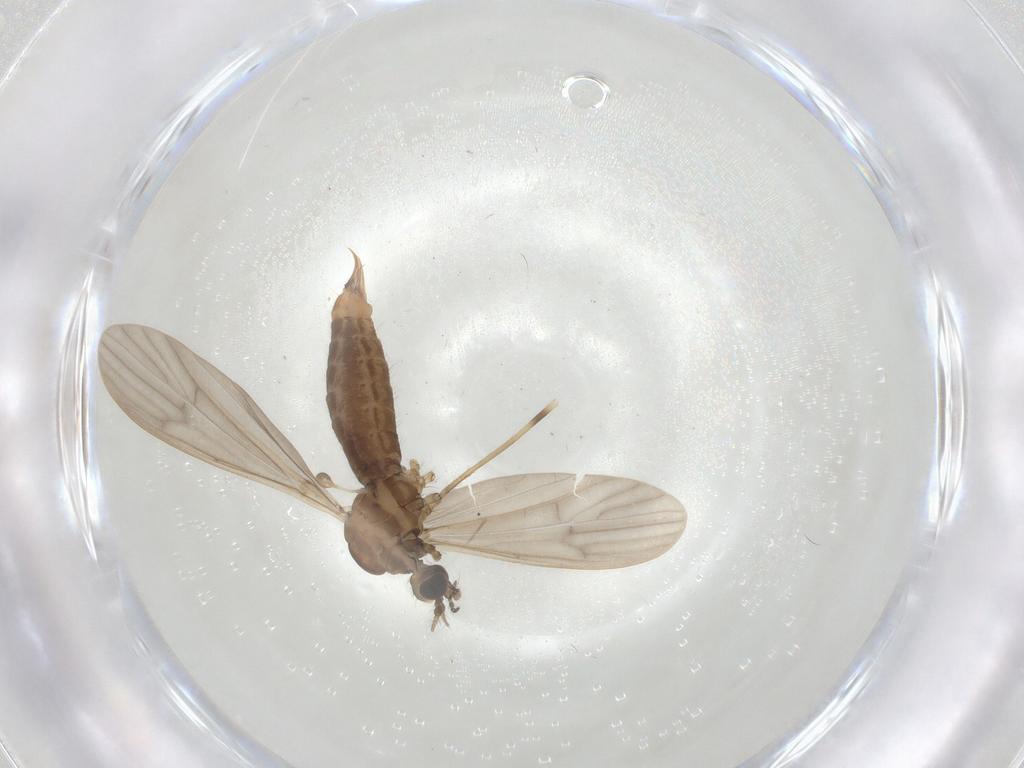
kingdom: Animalia
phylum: Arthropoda
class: Insecta
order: Diptera
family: Limoniidae
